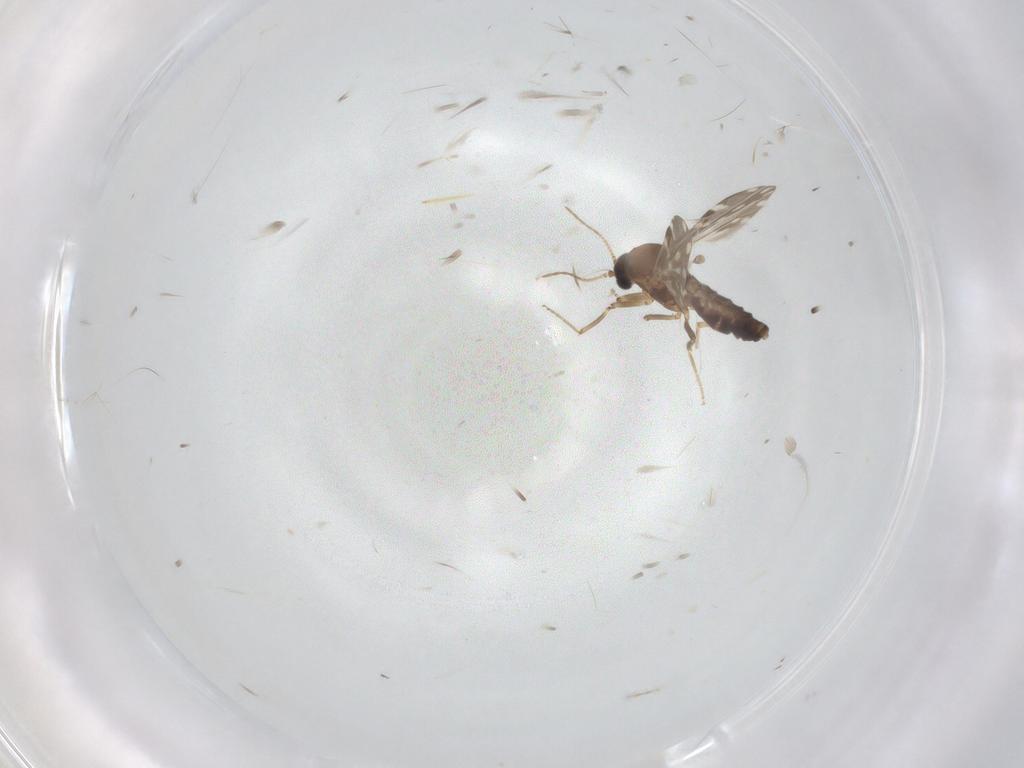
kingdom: Animalia
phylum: Arthropoda
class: Insecta
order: Diptera
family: Ceratopogonidae
